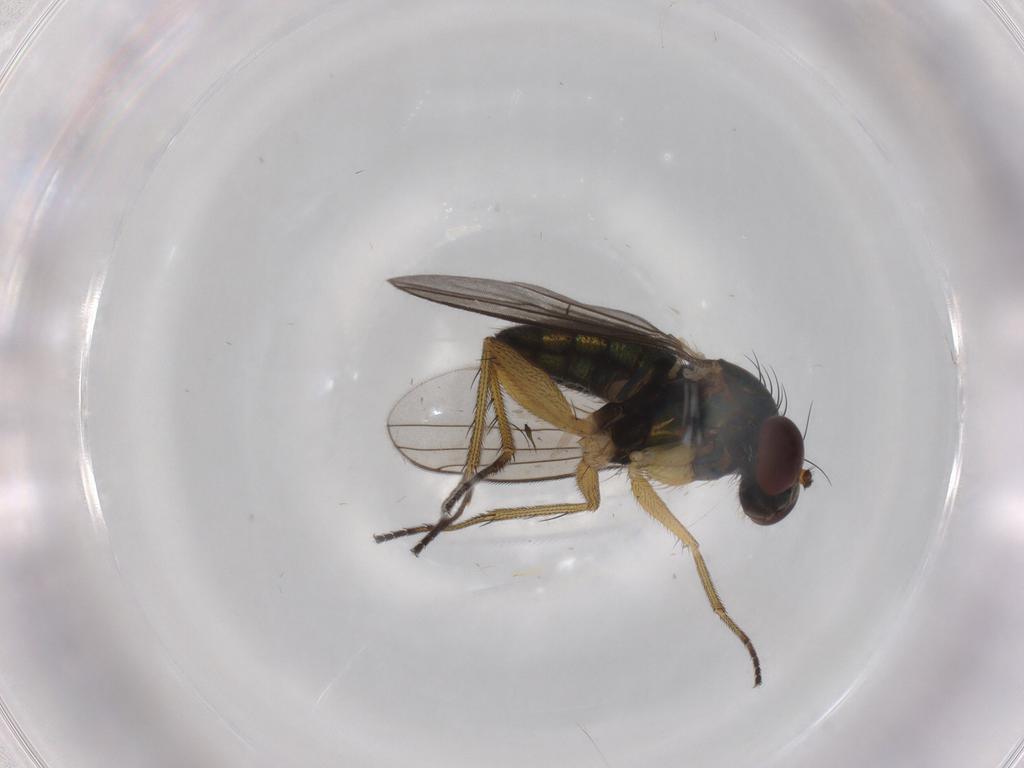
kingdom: Animalia
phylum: Arthropoda
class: Insecta
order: Diptera
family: Dolichopodidae
